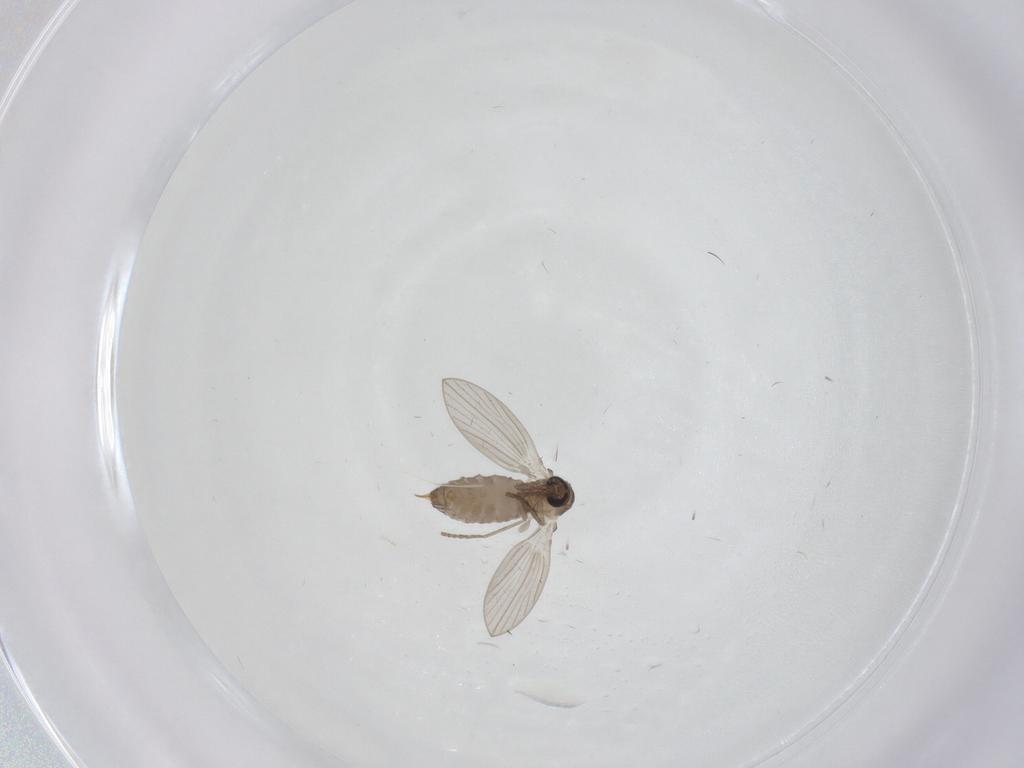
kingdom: Animalia
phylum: Arthropoda
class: Insecta
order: Diptera
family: Psychodidae
